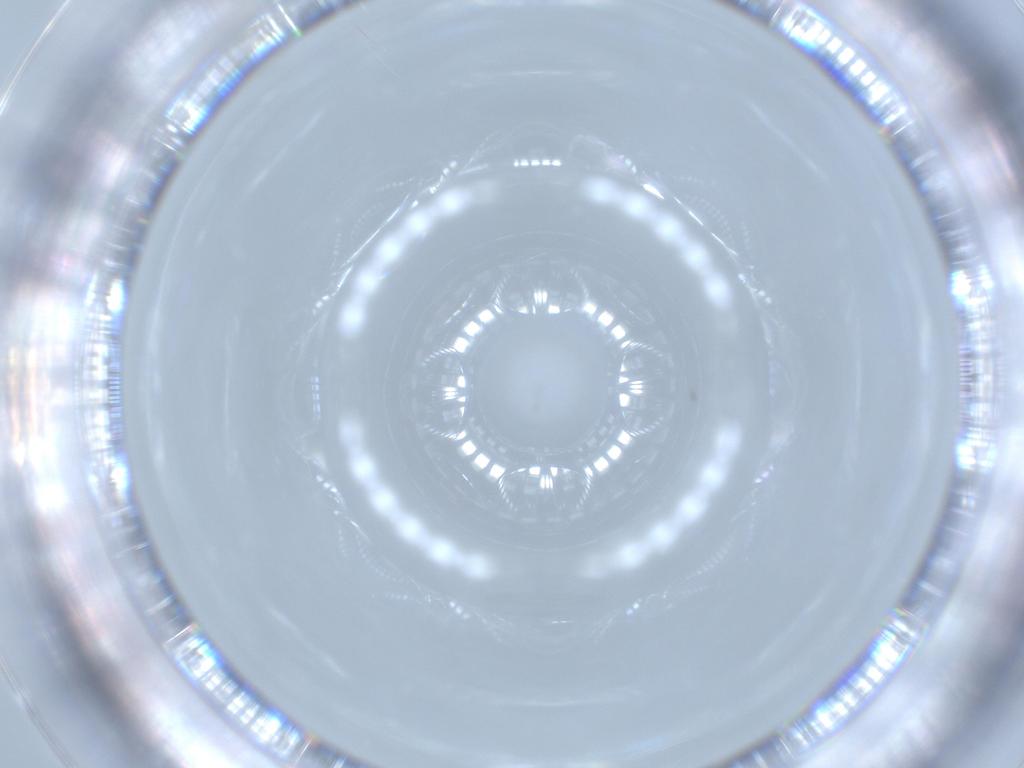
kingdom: Animalia
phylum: Arthropoda
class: Insecta
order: Diptera
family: Cecidomyiidae
